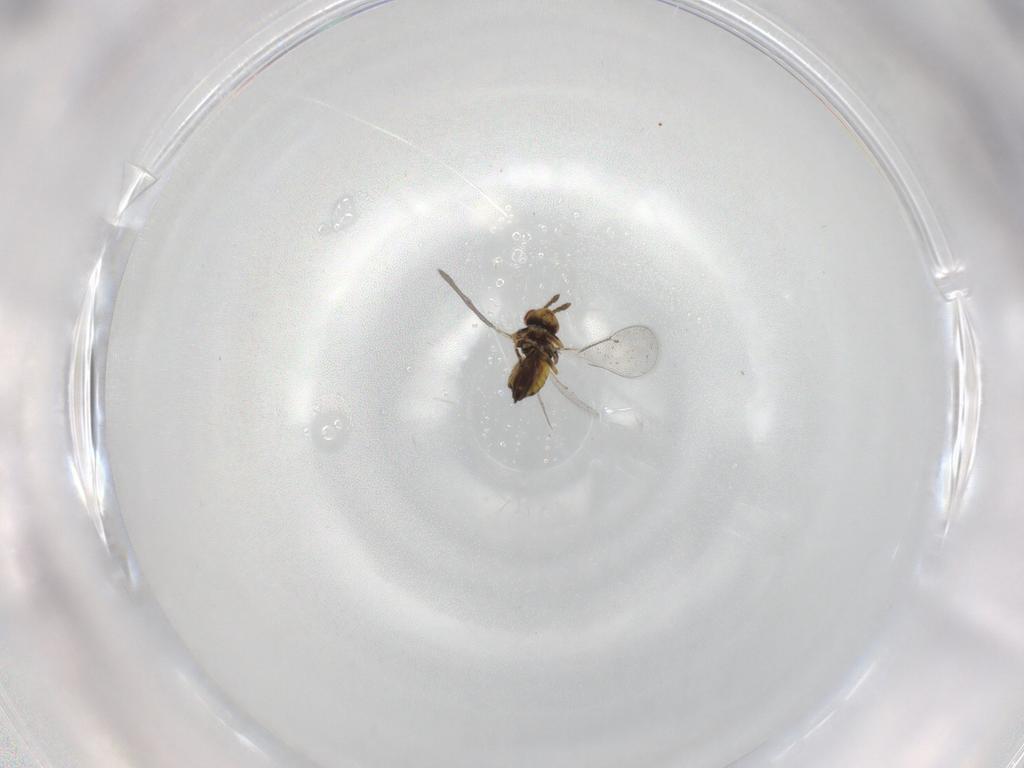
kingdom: Animalia
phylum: Arthropoda
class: Insecta
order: Hymenoptera
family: Eulophidae
